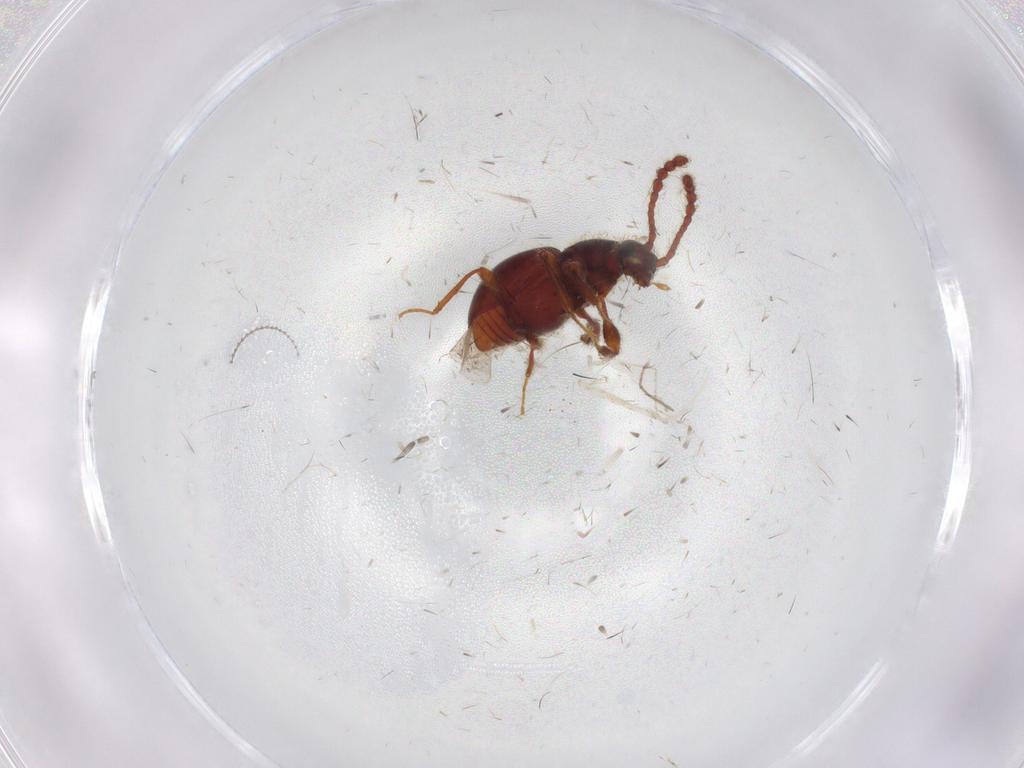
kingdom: Animalia
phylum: Arthropoda
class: Insecta
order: Coleoptera
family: Staphylinidae
